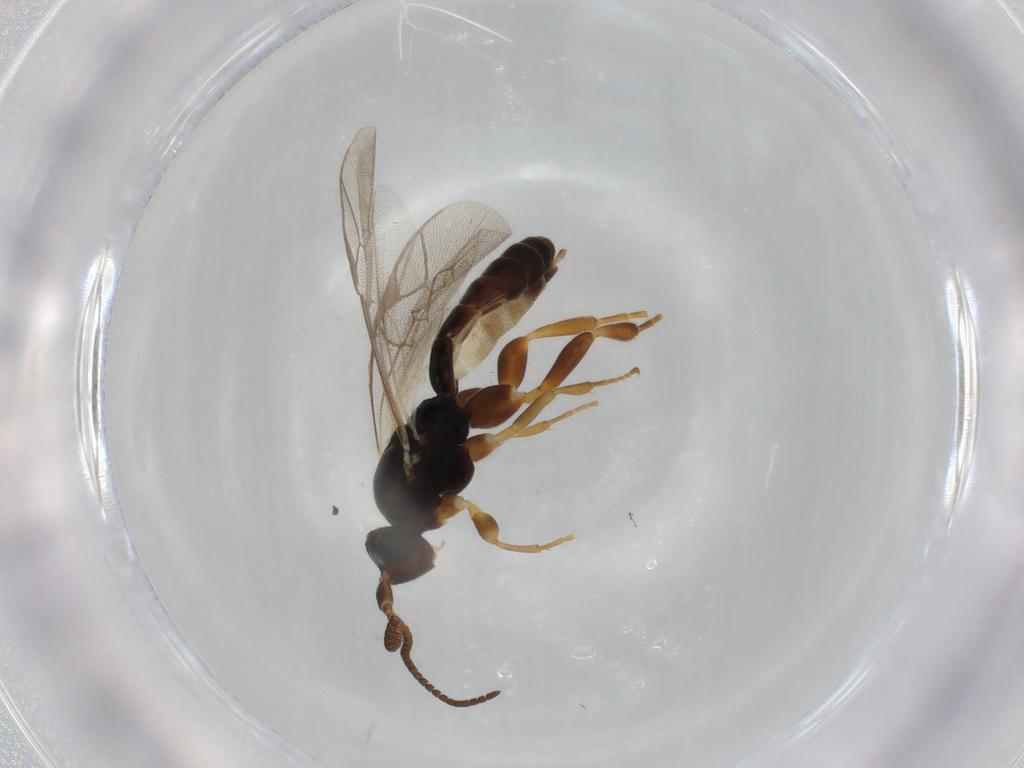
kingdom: Animalia
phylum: Arthropoda
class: Insecta
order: Hymenoptera
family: Ichneumonidae
